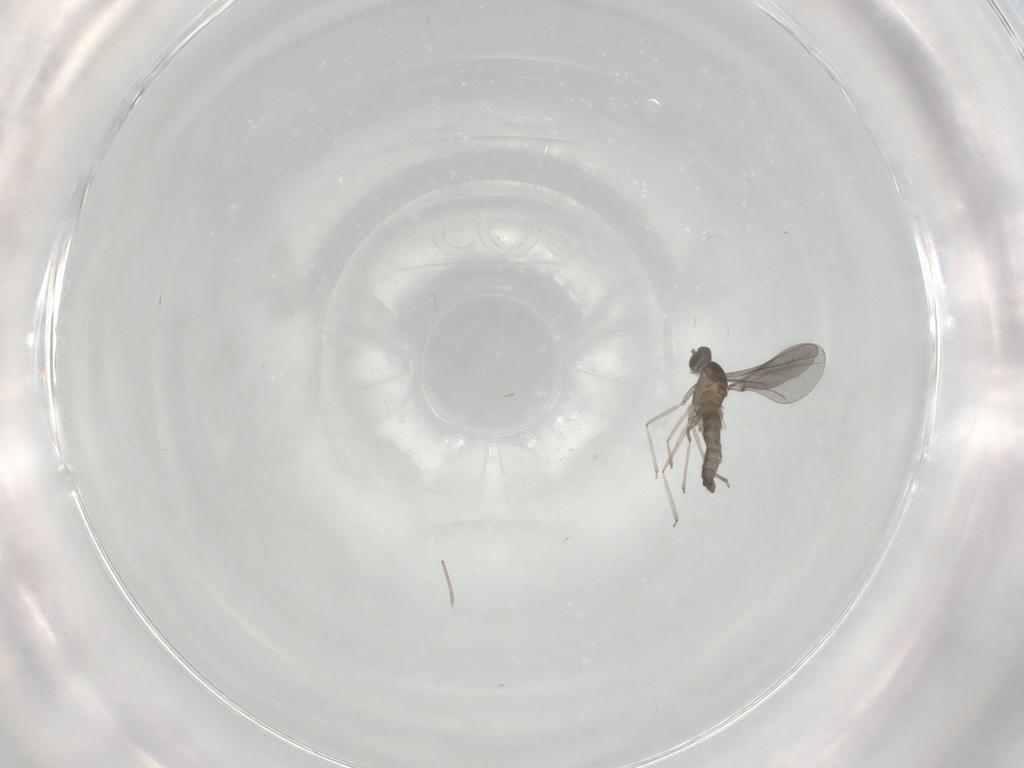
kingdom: Animalia
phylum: Arthropoda
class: Insecta
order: Diptera
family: Cecidomyiidae
